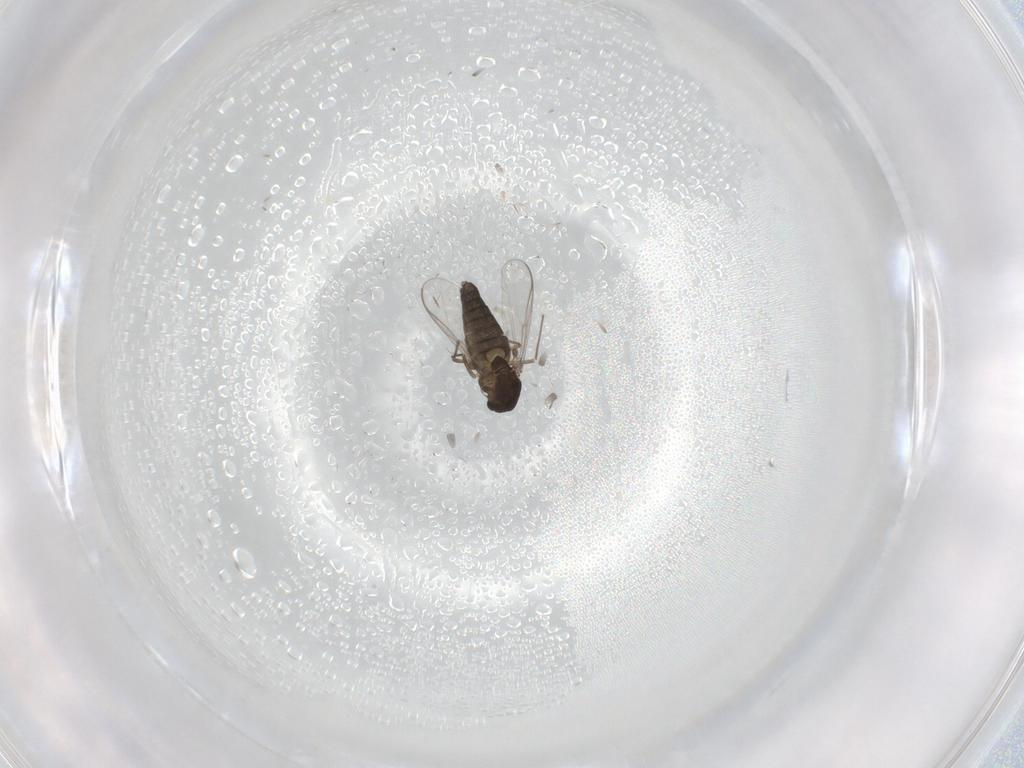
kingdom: Animalia
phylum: Arthropoda
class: Insecta
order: Diptera
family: Chironomidae
